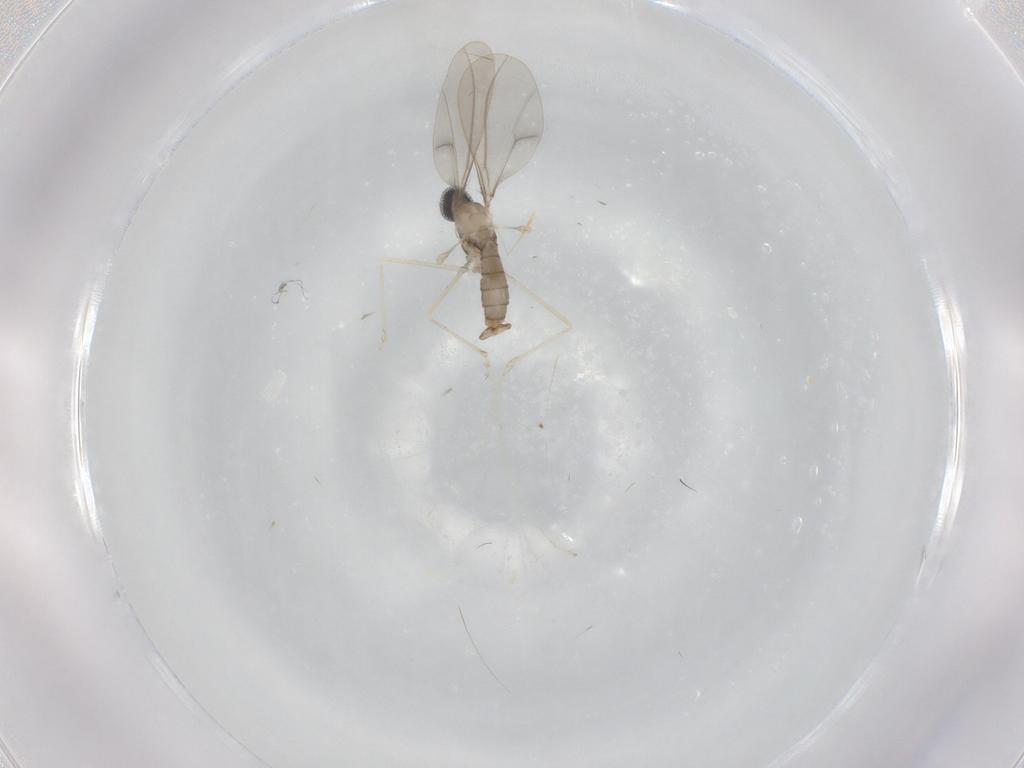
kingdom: Animalia
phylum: Arthropoda
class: Insecta
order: Diptera
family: Cecidomyiidae
